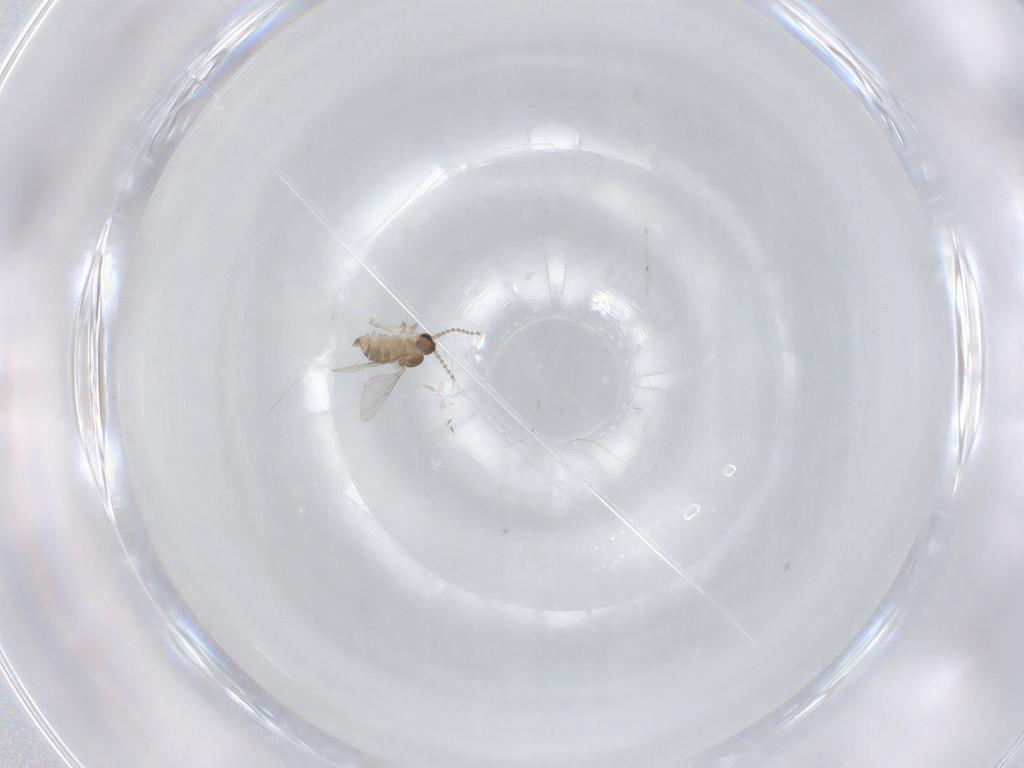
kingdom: Animalia
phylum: Arthropoda
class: Insecta
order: Diptera
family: Cecidomyiidae
